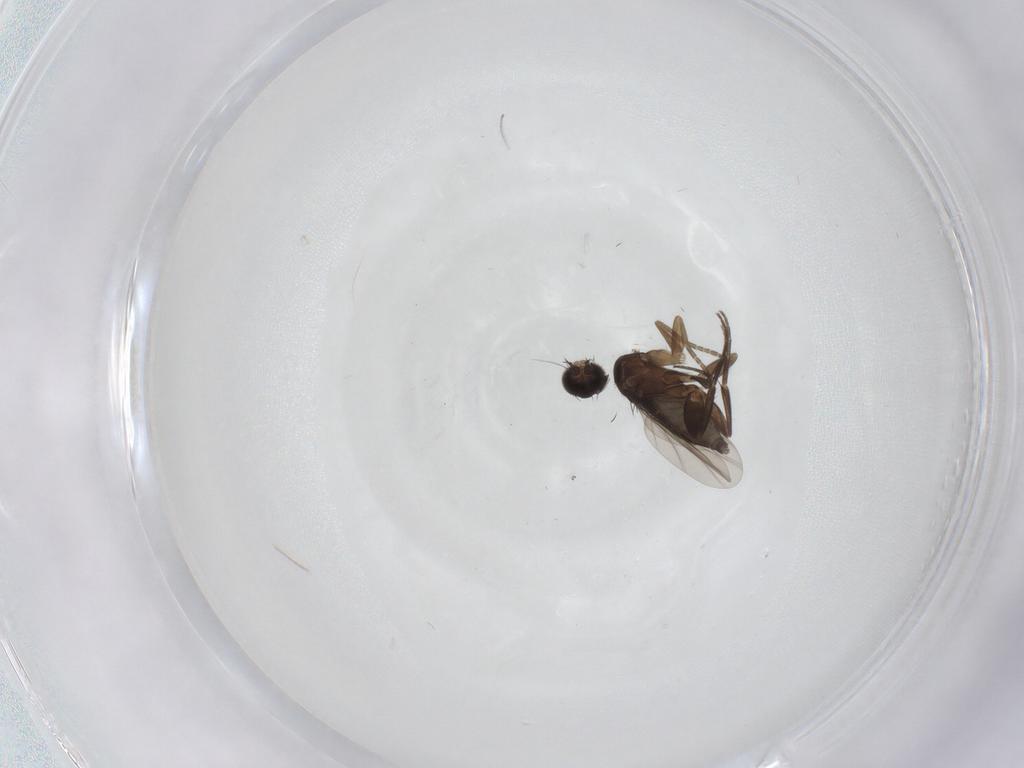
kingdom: Animalia
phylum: Arthropoda
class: Insecta
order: Diptera
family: Phoridae
